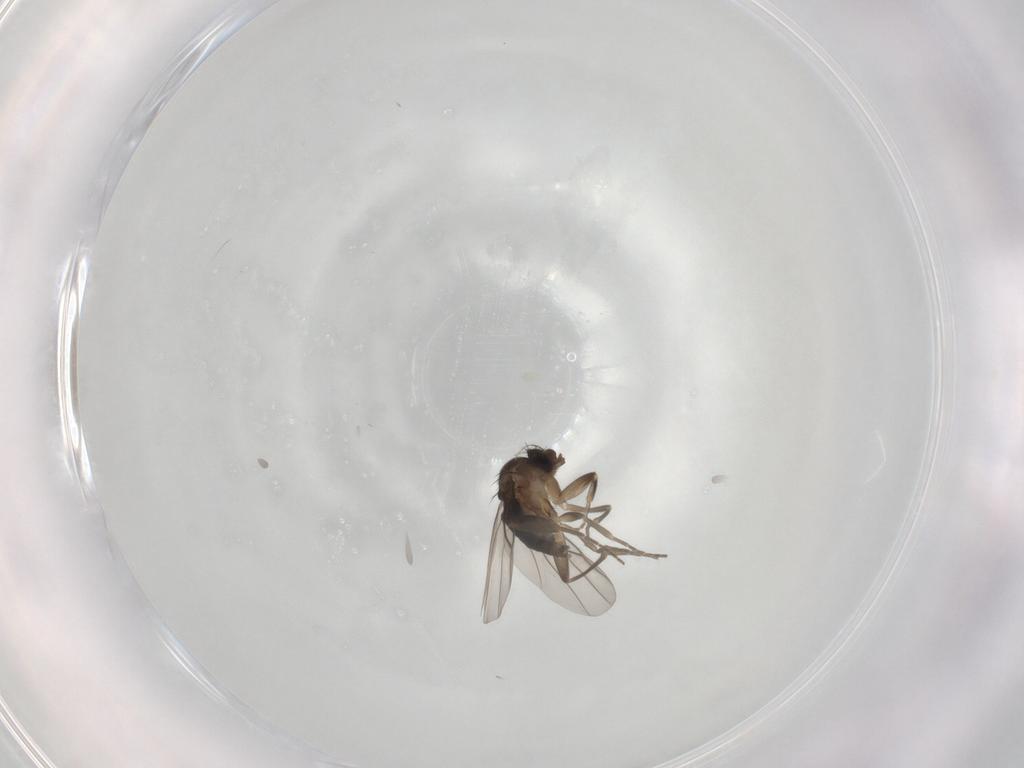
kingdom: Animalia
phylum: Arthropoda
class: Insecta
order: Diptera
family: Phoridae
